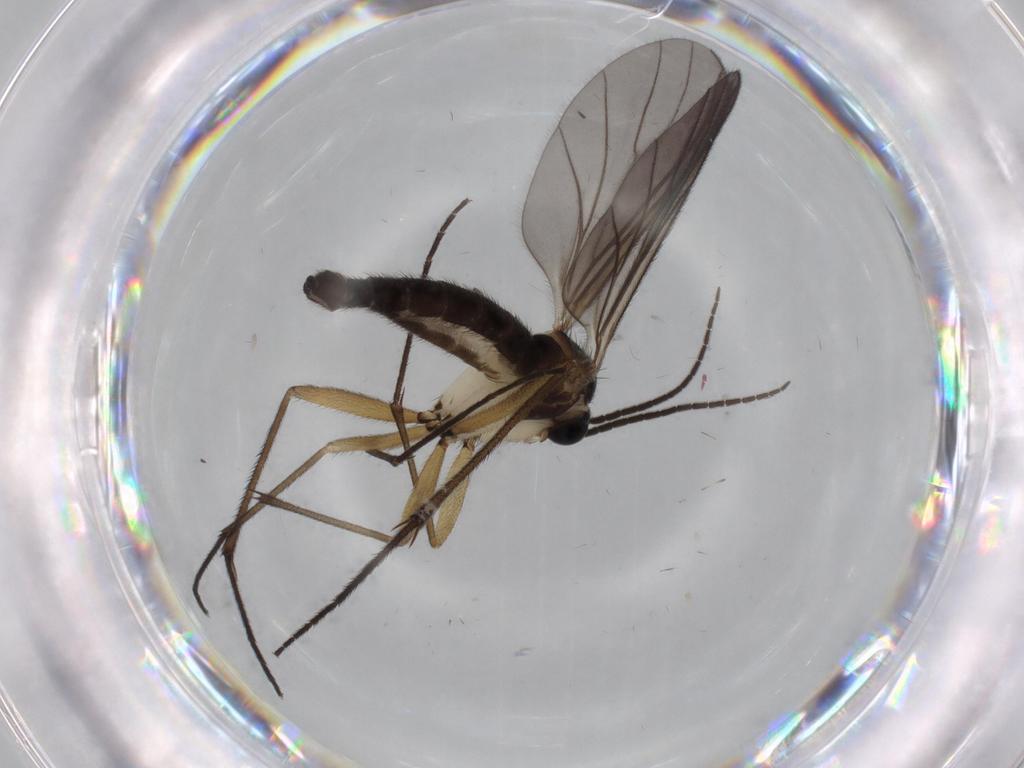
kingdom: Animalia
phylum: Arthropoda
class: Insecta
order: Diptera
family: Sciaridae
